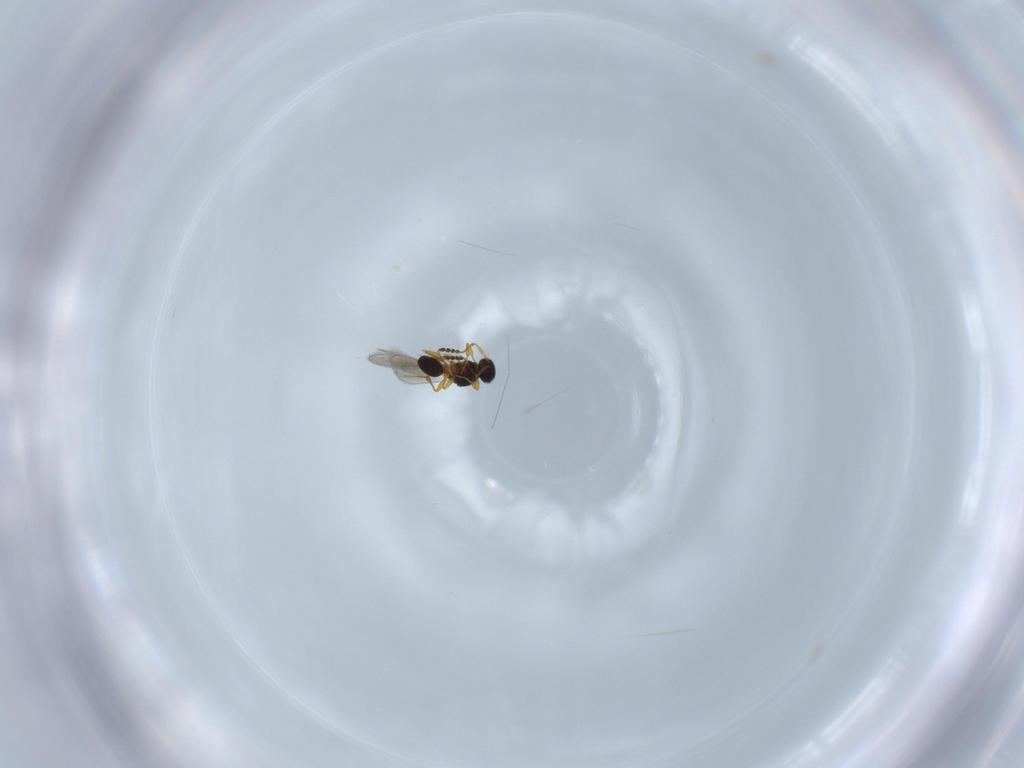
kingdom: Animalia
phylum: Arthropoda
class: Insecta
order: Hymenoptera
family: Platygastridae
